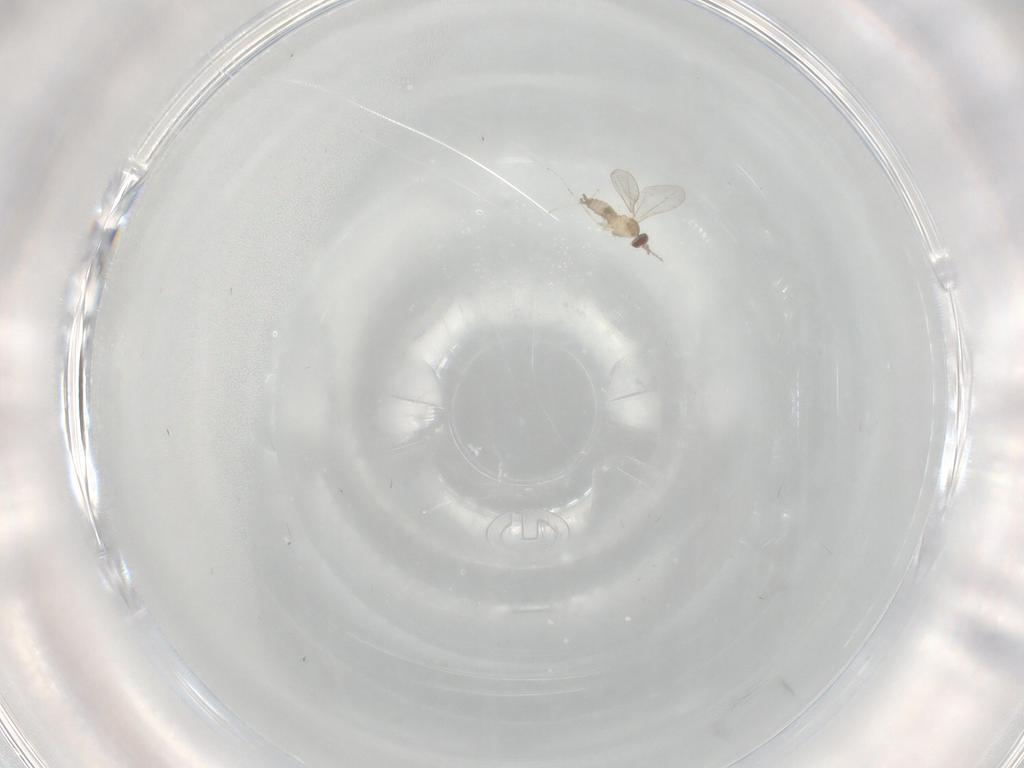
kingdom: Animalia
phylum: Arthropoda
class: Insecta
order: Diptera
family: Cecidomyiidae
